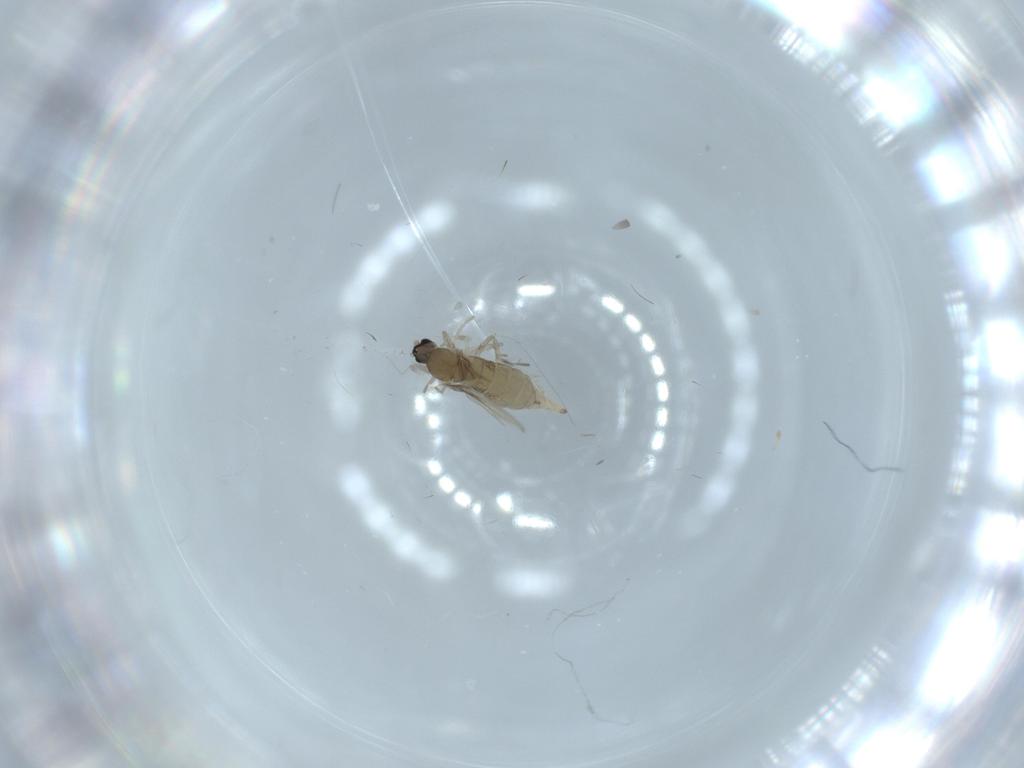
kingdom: Animalia
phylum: Arthropoda
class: Insecta
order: Diptera
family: Cecidomyiidae
